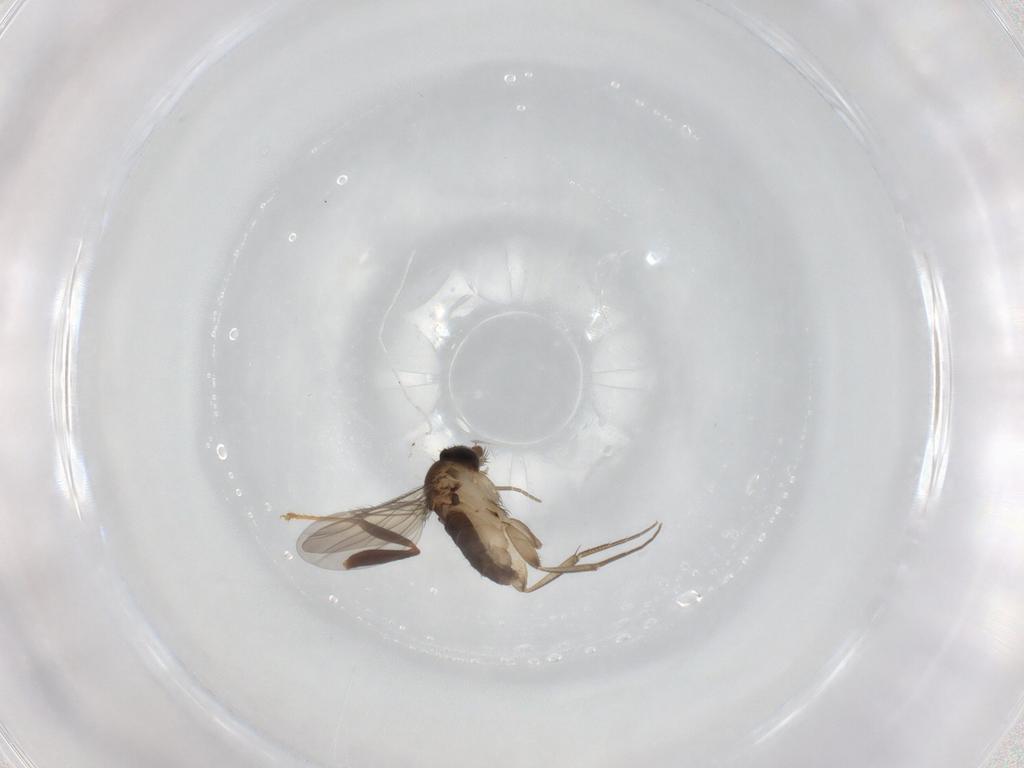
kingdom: Animalia
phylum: Arthropoda
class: Insecta
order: Diptera
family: Phoridae
